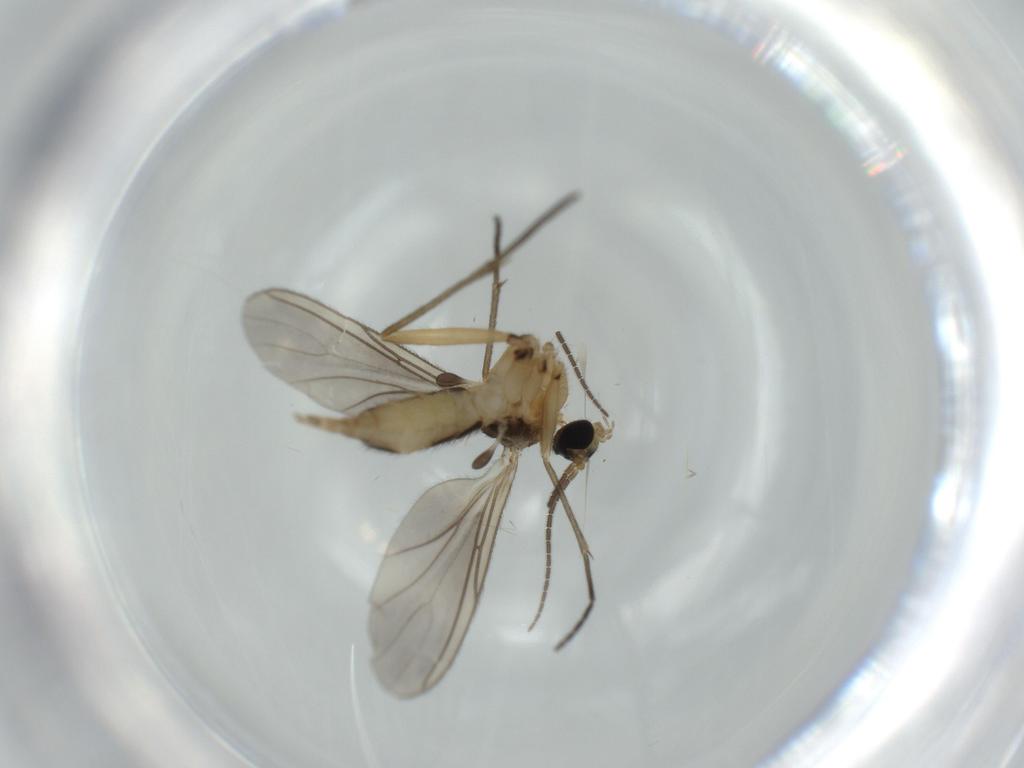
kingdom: Animalia
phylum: Arthropoda
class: Insecta
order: Diptera
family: Sciaridae
